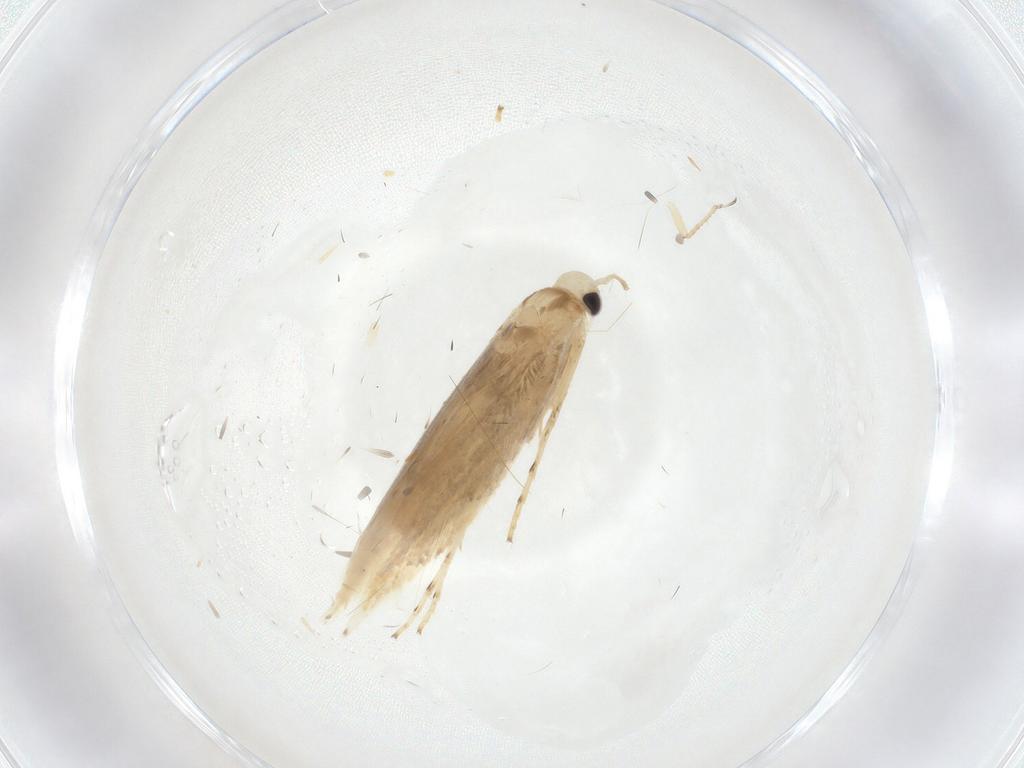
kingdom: Animalia
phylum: Arthropoda
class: Insecta
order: Lepidoptera
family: Gracillariidae
